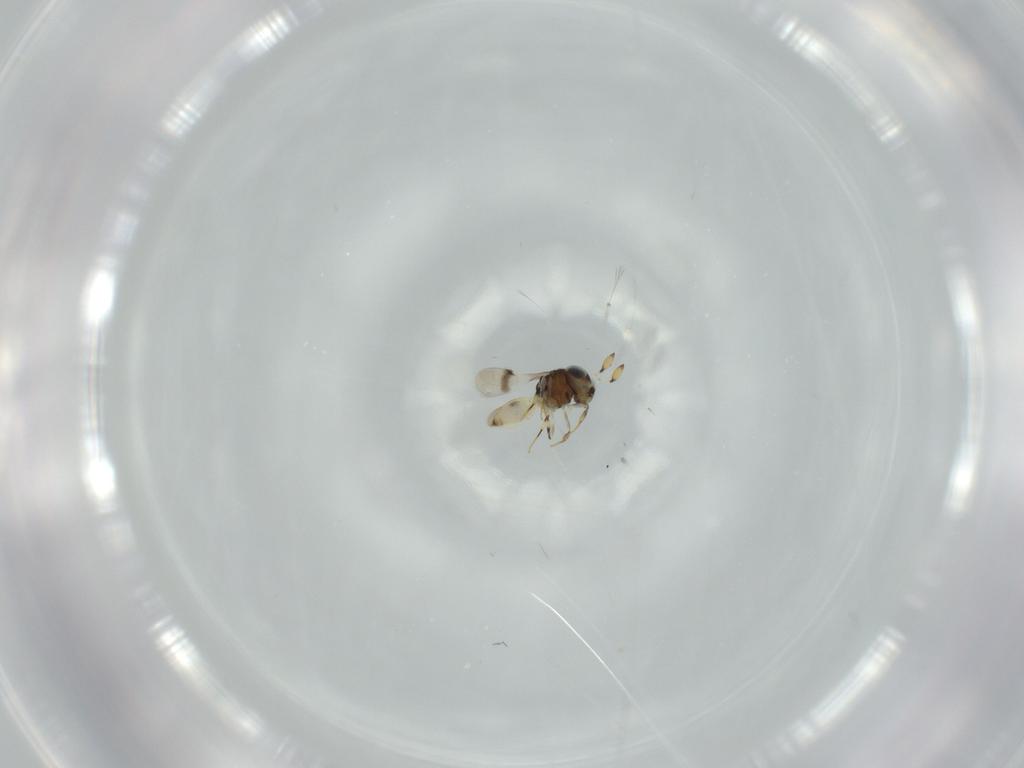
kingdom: Animalia
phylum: Arthropoda
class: Insecta
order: Hymenoptera
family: Scelionidae
